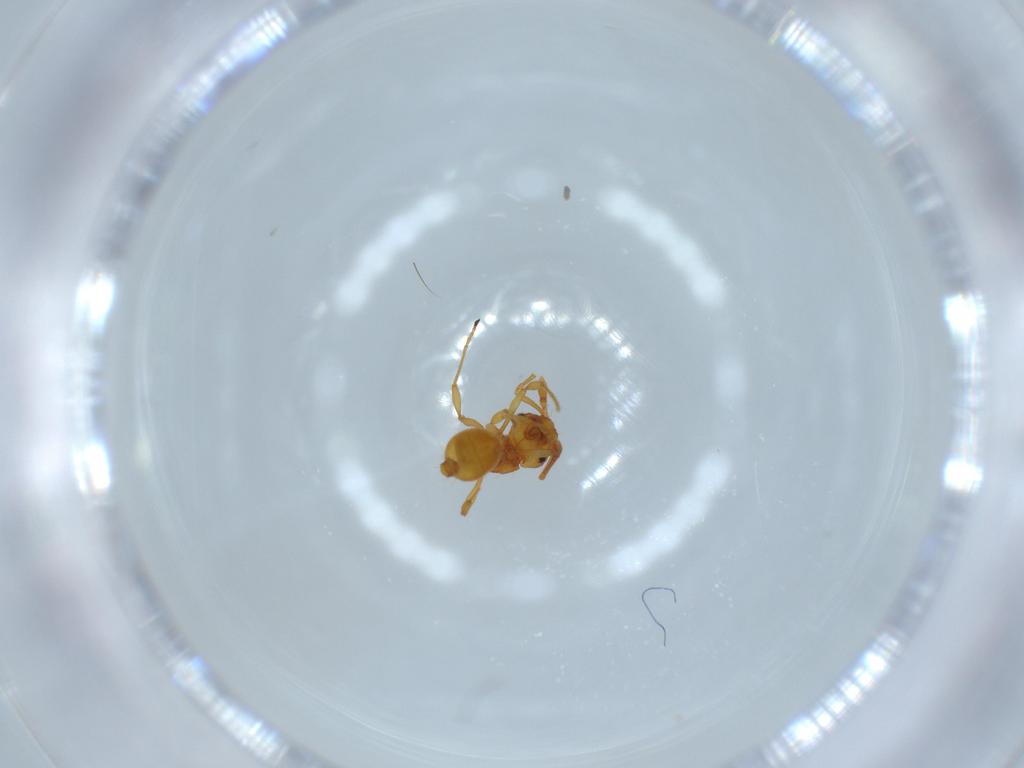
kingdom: Animalia
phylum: Arthropoda
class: Insecta
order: Hymenoptera
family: Formicidae
